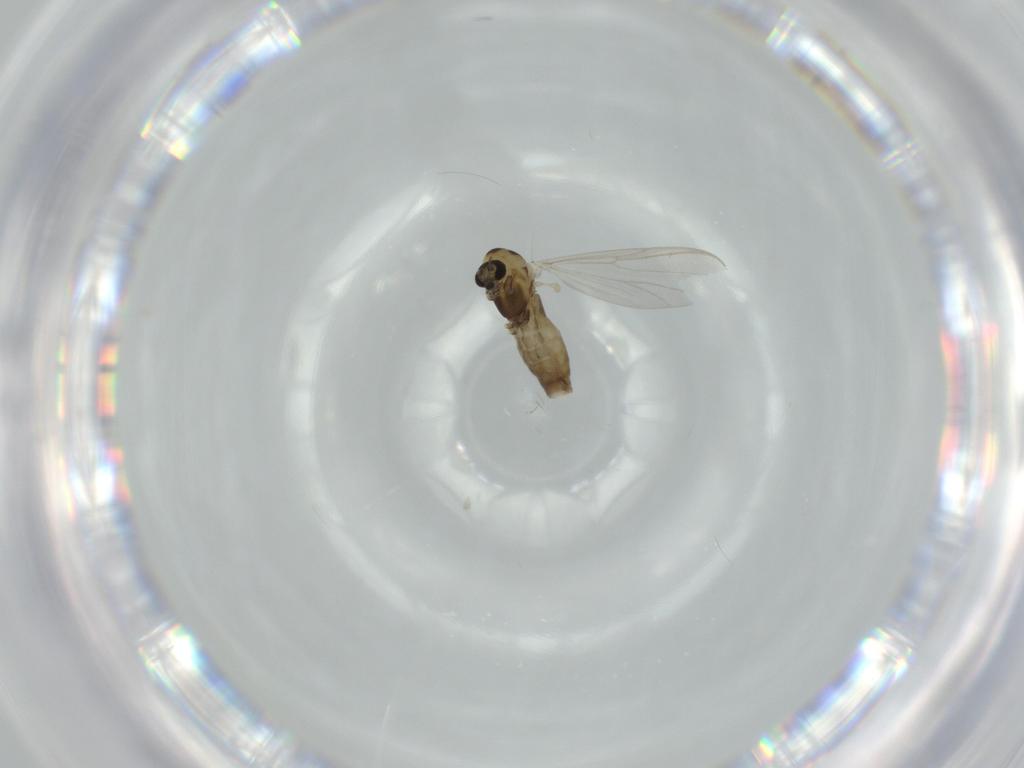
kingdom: Animalia
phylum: Arthropoda
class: Insecta
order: Diptera
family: Chironomidae
